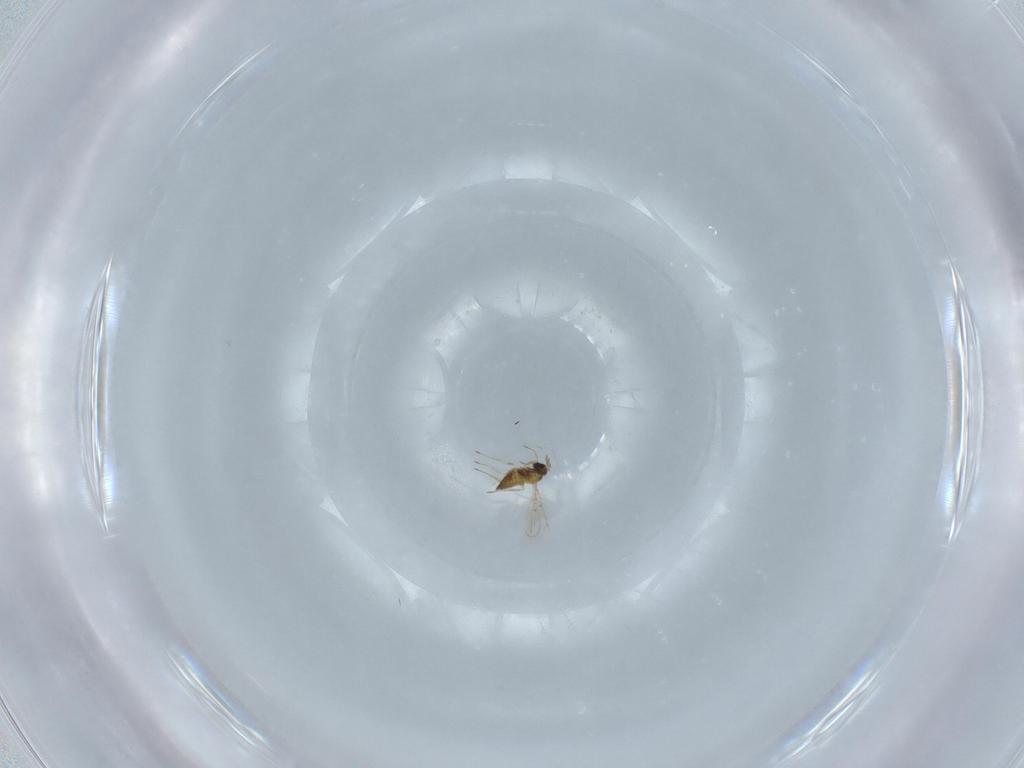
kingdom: Animalia
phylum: Arthropoda
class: Insecta
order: Hymenoptera
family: Trichogrammatidae
